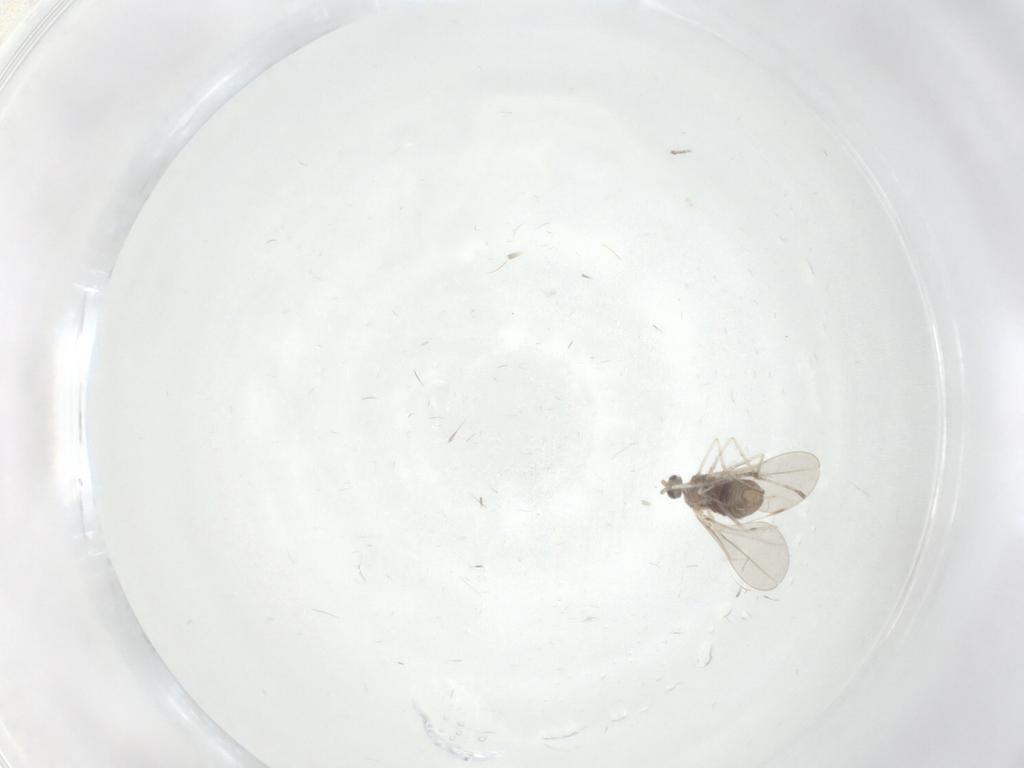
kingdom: Animalia
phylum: Arthropoda
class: Insecta
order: Diptera
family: Cecidomyiidae
